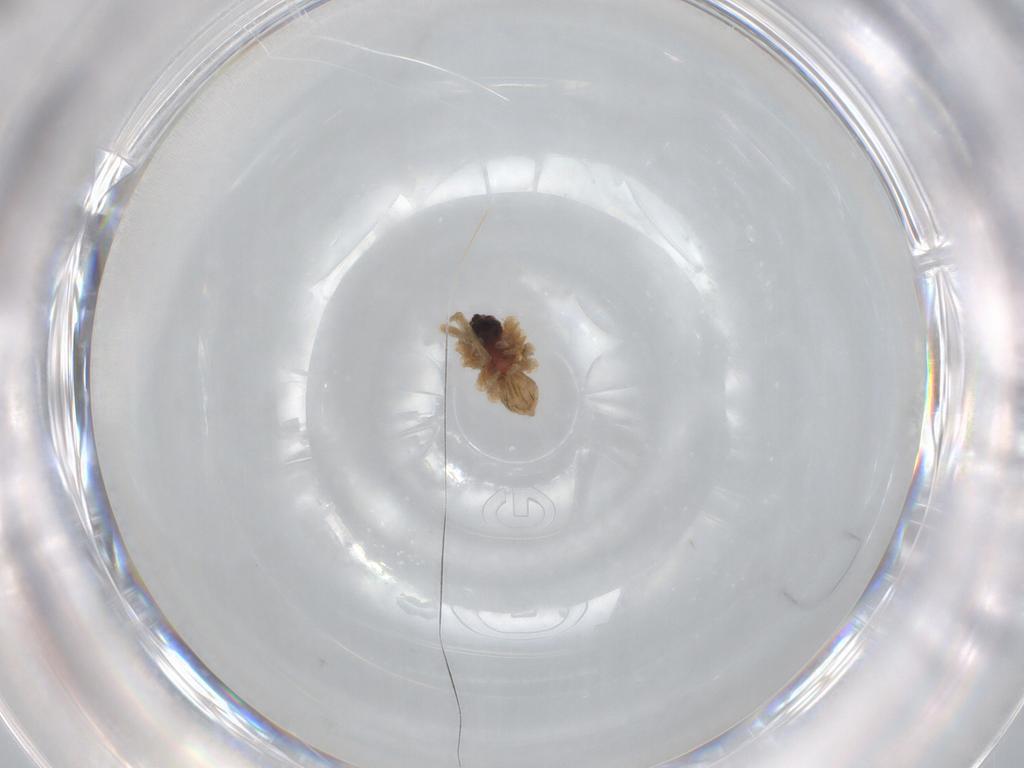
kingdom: Animalia
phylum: Arthropoda
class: Arachnida
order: Araneae
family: Lycosidae
